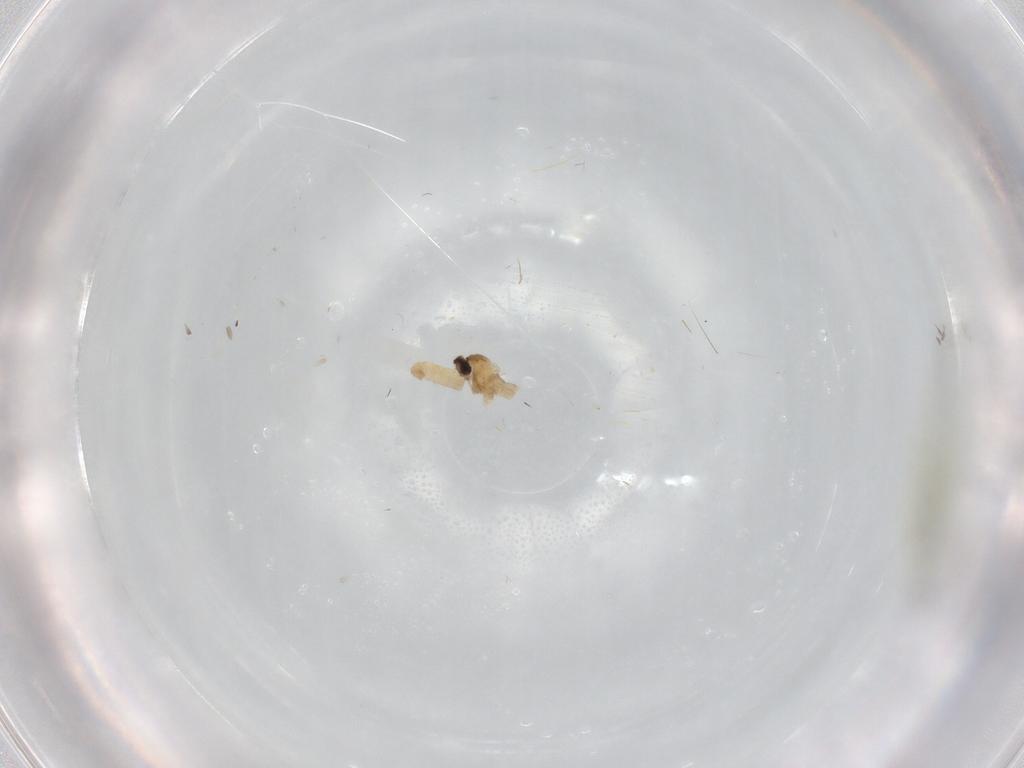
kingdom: Animalia
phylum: Arthropoda
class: Insecta
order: Diptera
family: Cecidomyiidae
